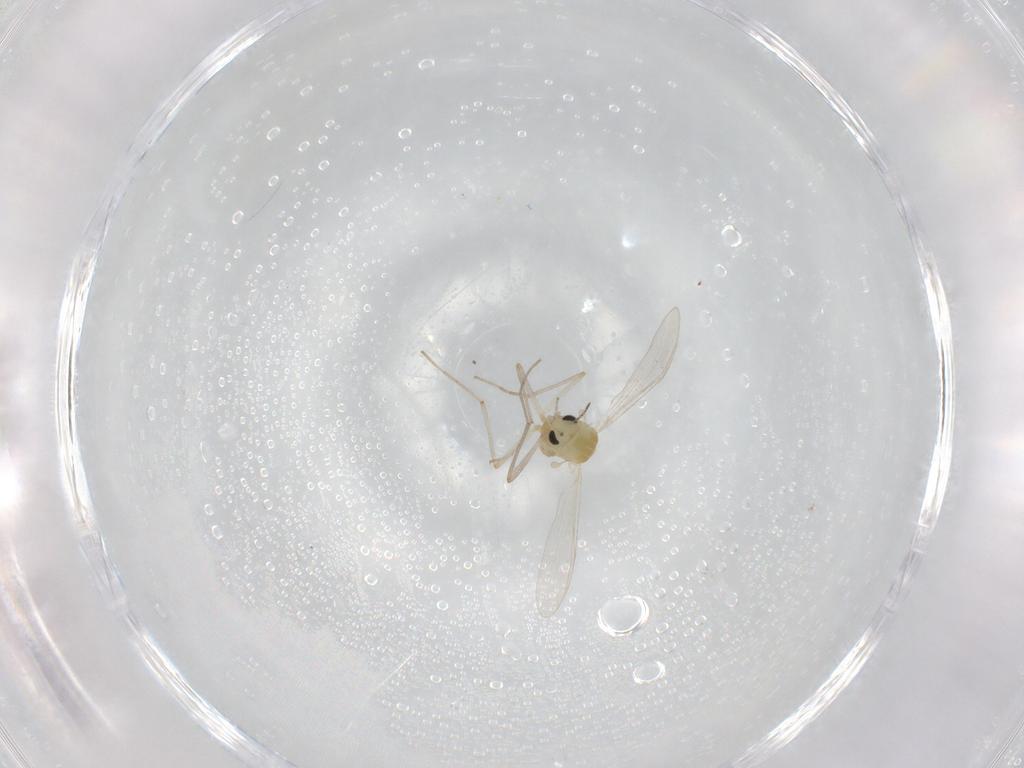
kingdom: Animalia
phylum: Arthropoda
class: Insecta
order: Diptera
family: Chironomidae
